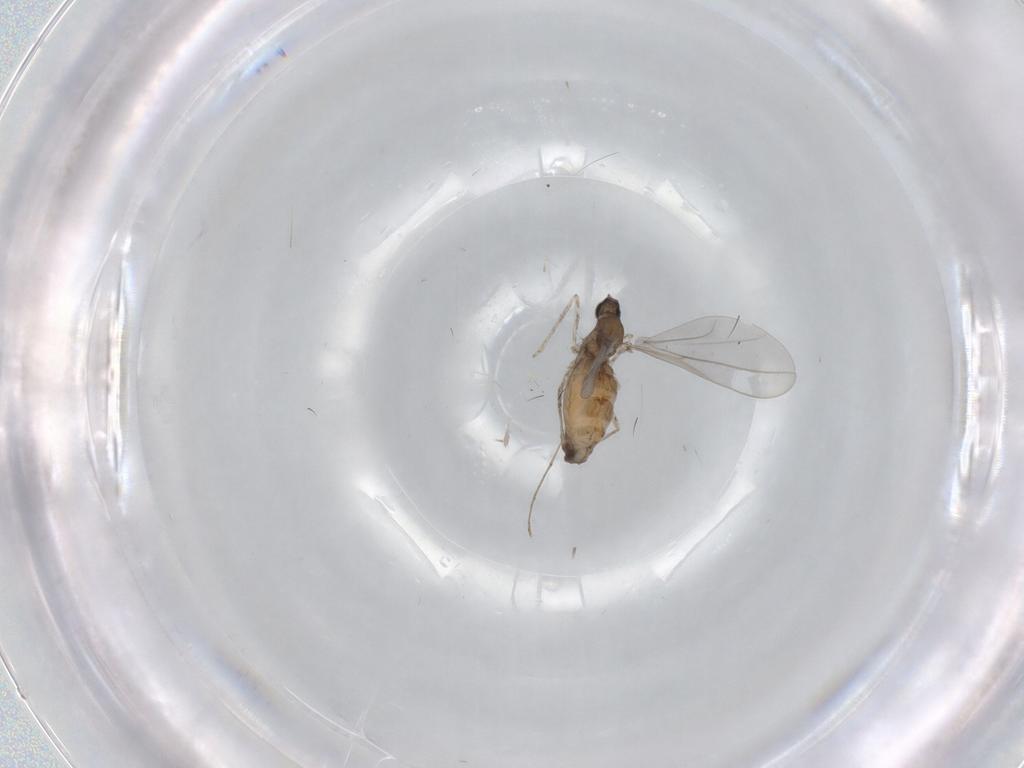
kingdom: Animalia
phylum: Arthropoda
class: Insecta
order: Diptera
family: Cecidomyiidae
